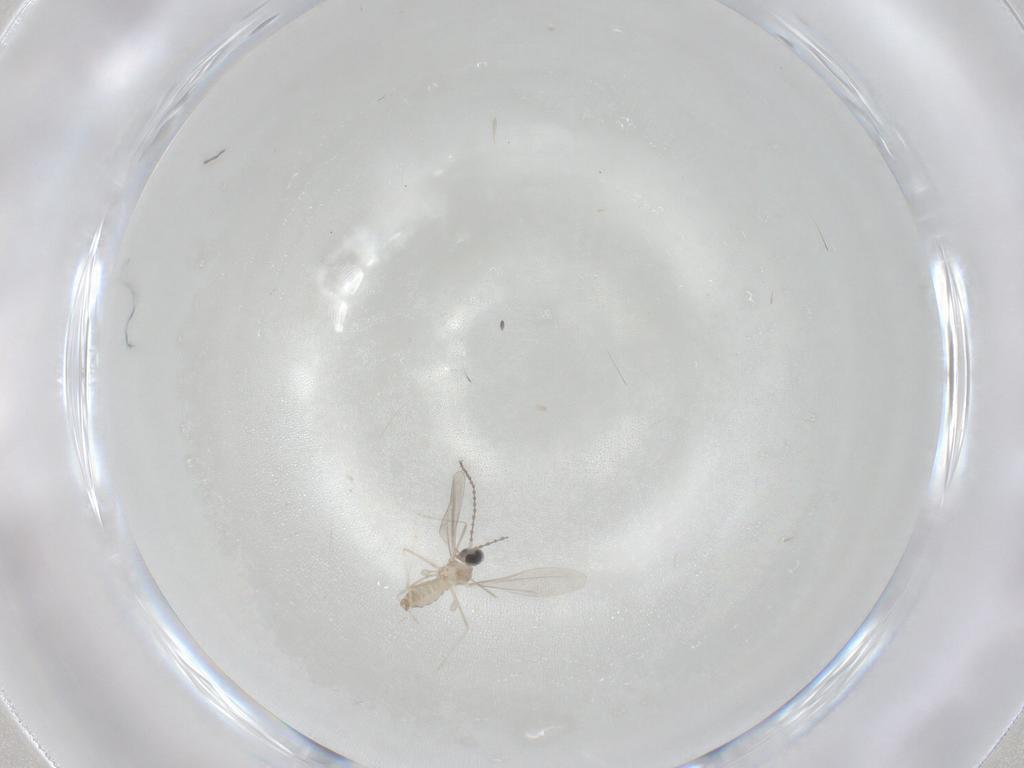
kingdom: Animalia
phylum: Arthropoda
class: Insecta
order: Diptera
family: Cecidomyiidae
